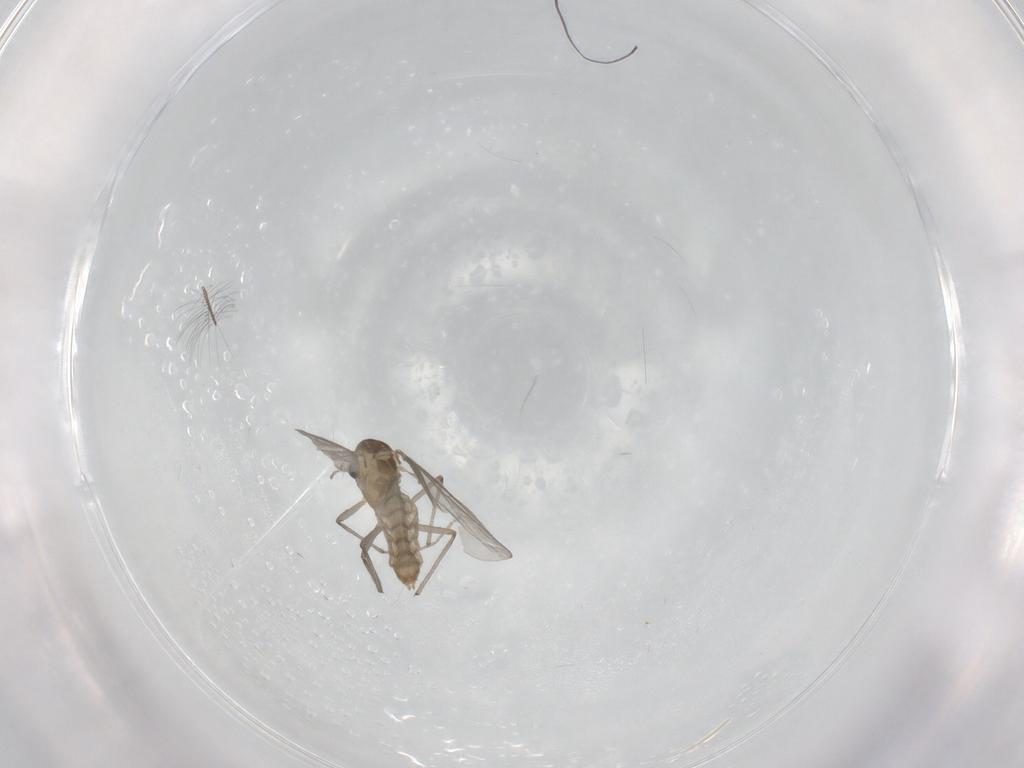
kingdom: Animalia
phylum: Arthropoda
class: Insecta
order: Diptera
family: Chironomidae
